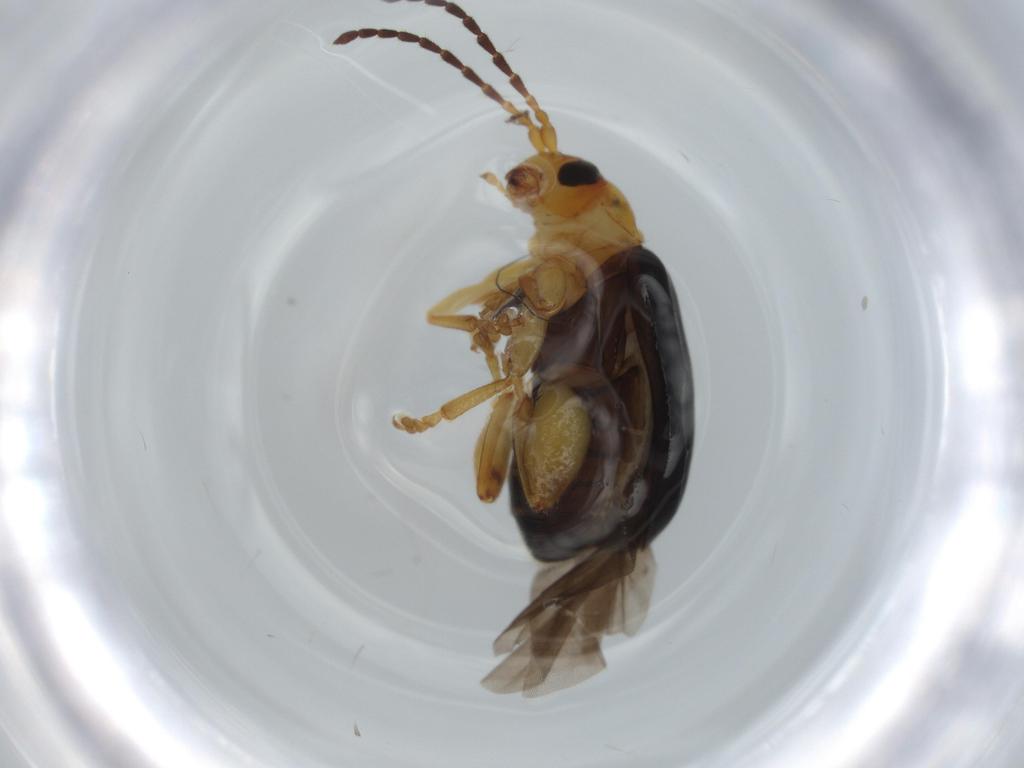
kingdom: Animalia
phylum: Arthropoda
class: Insecta
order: Coleoptera
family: Chrysomelidae
